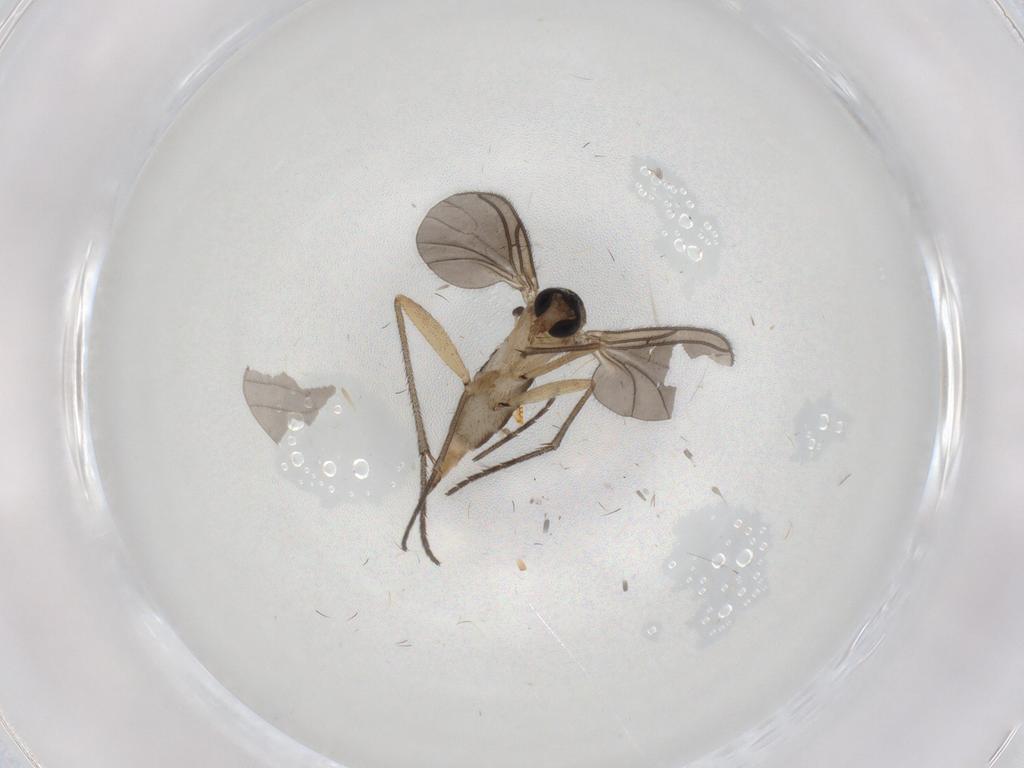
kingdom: Animalia
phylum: Arthropoda
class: Insecta
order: Diptera
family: Sciaridae
